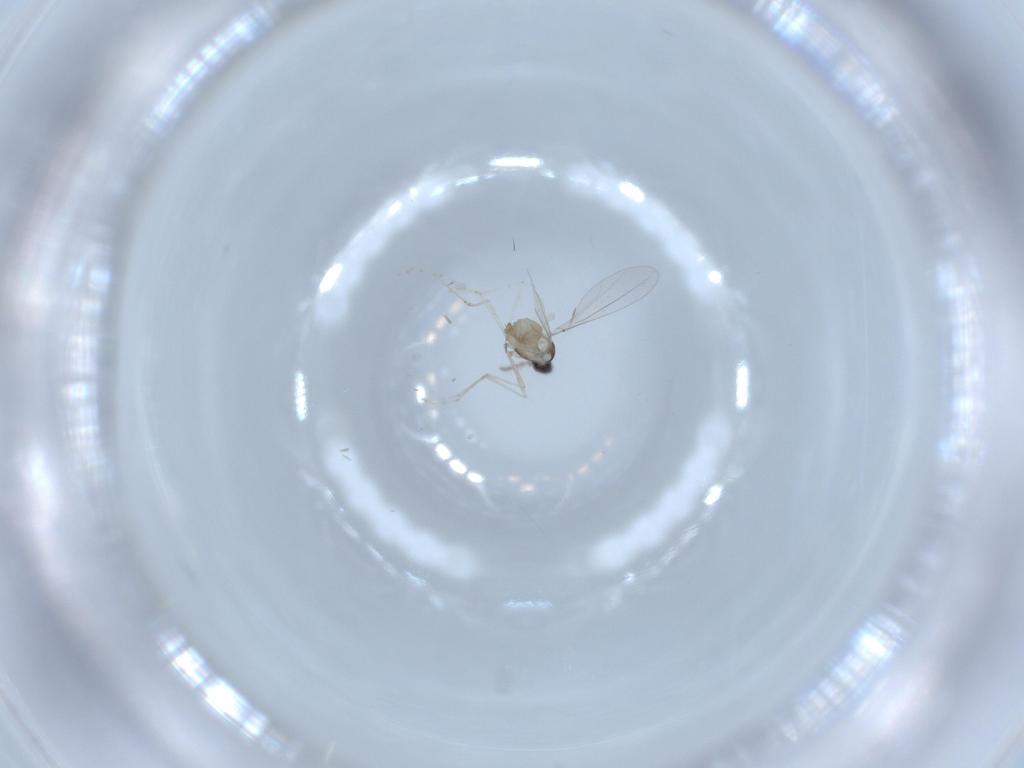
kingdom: Animalia
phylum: Arthropoda
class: Insecta
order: Diptera
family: Cecidomyiidae
